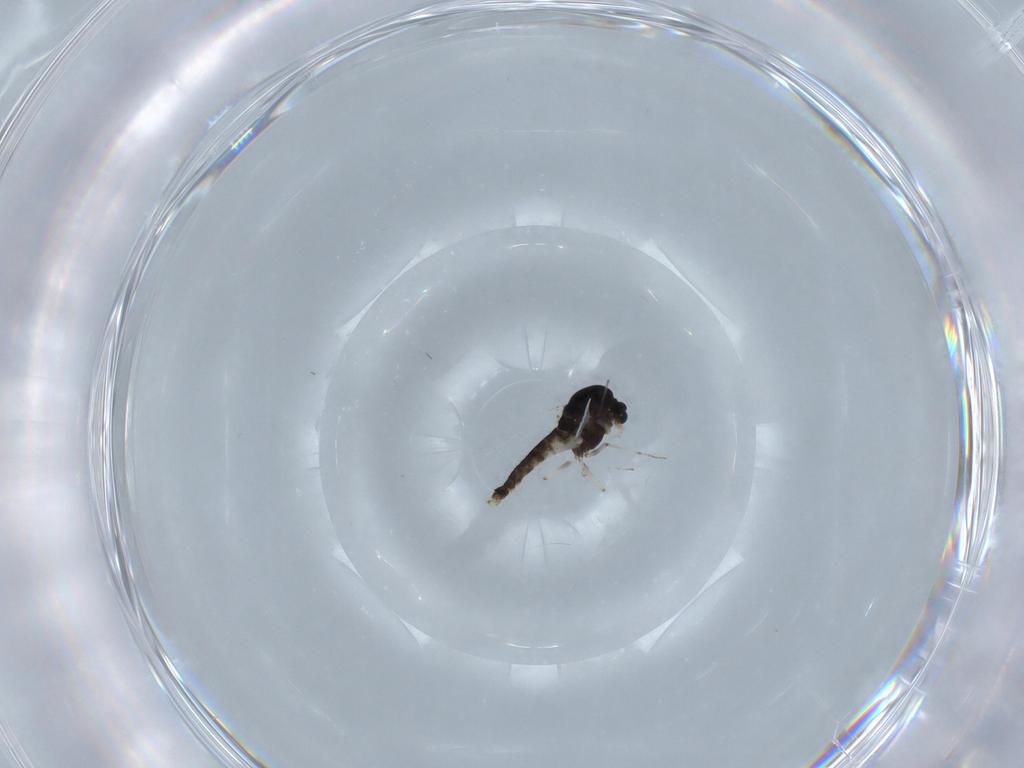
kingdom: Animalia
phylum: Arthropoda
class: Insecta
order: Diptera
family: Chironomidae
